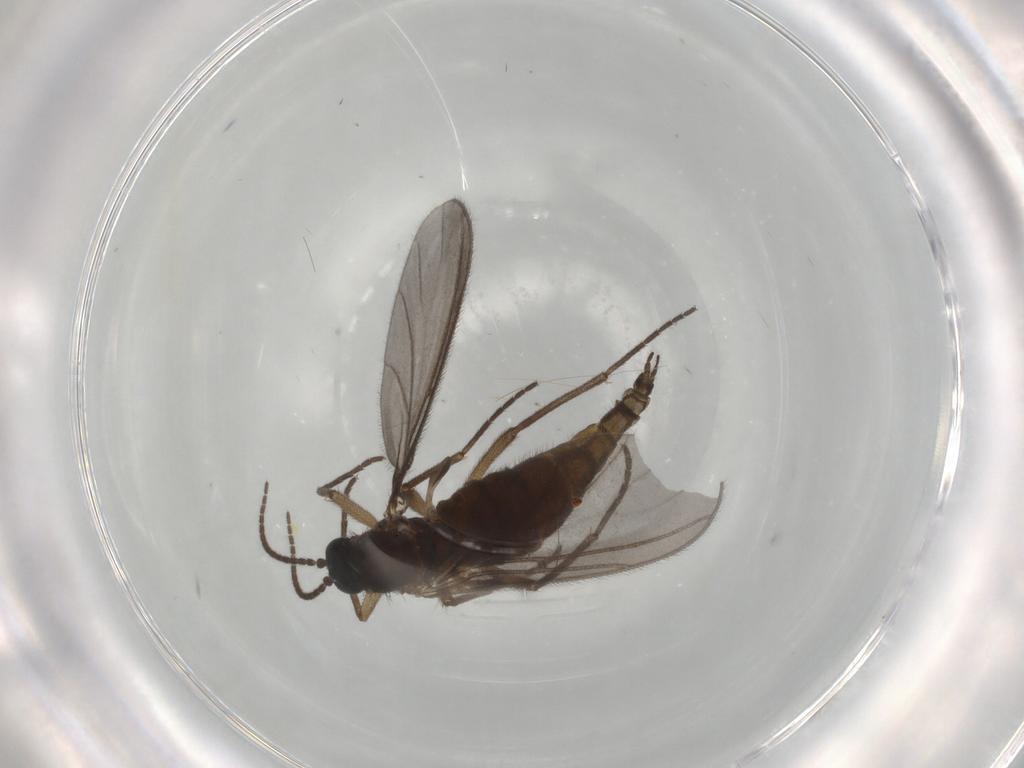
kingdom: Animalia
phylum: Arthropoda
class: Insecta
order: Diptera
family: Sciaridae
